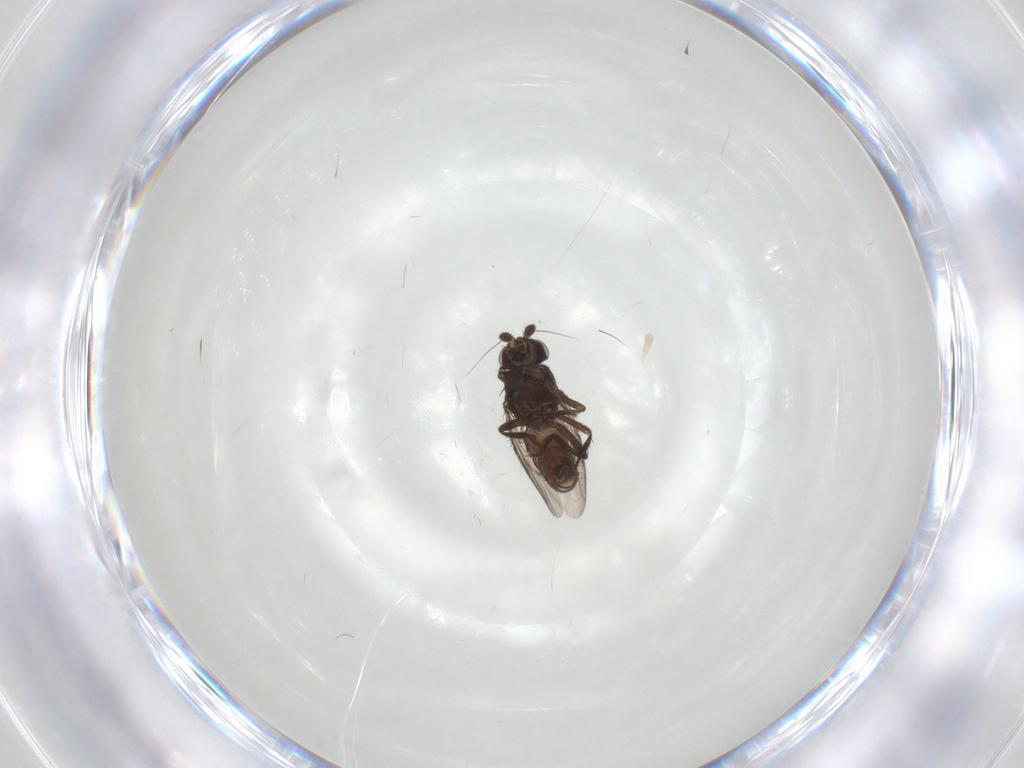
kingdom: Animalia
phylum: Arthropoda
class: Insecta
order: Diptera
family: Sphaeroceridae
